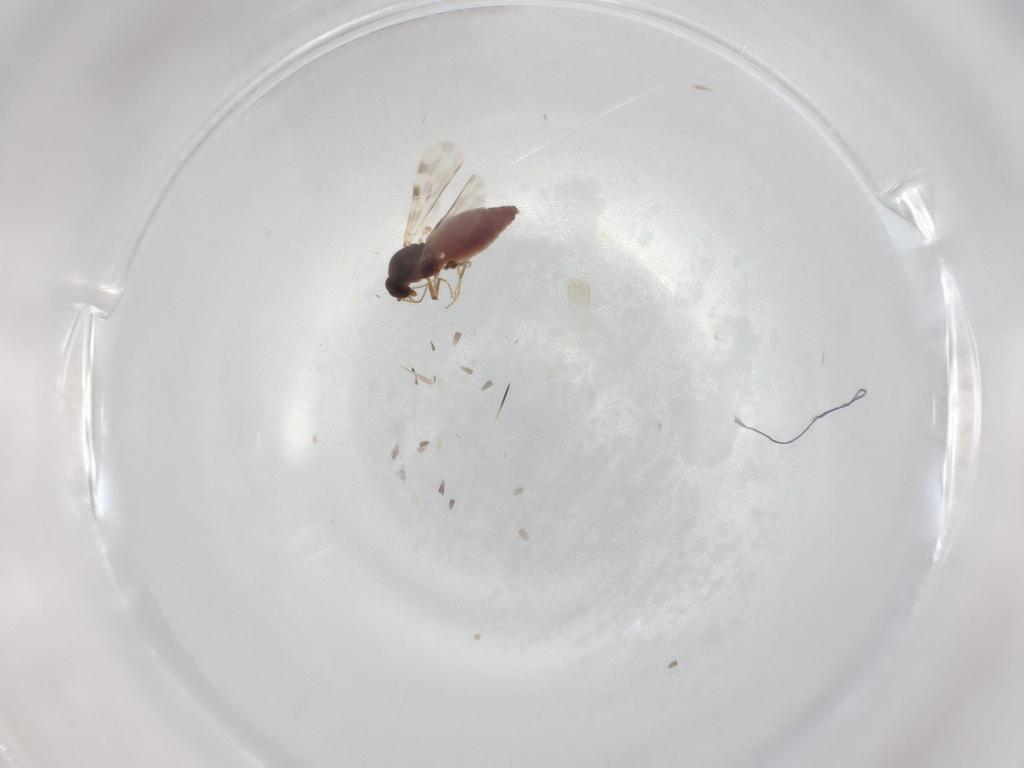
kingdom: Animalia
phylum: Arthropoda
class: Insecta
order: Diptera
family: Ceratopogonidae
